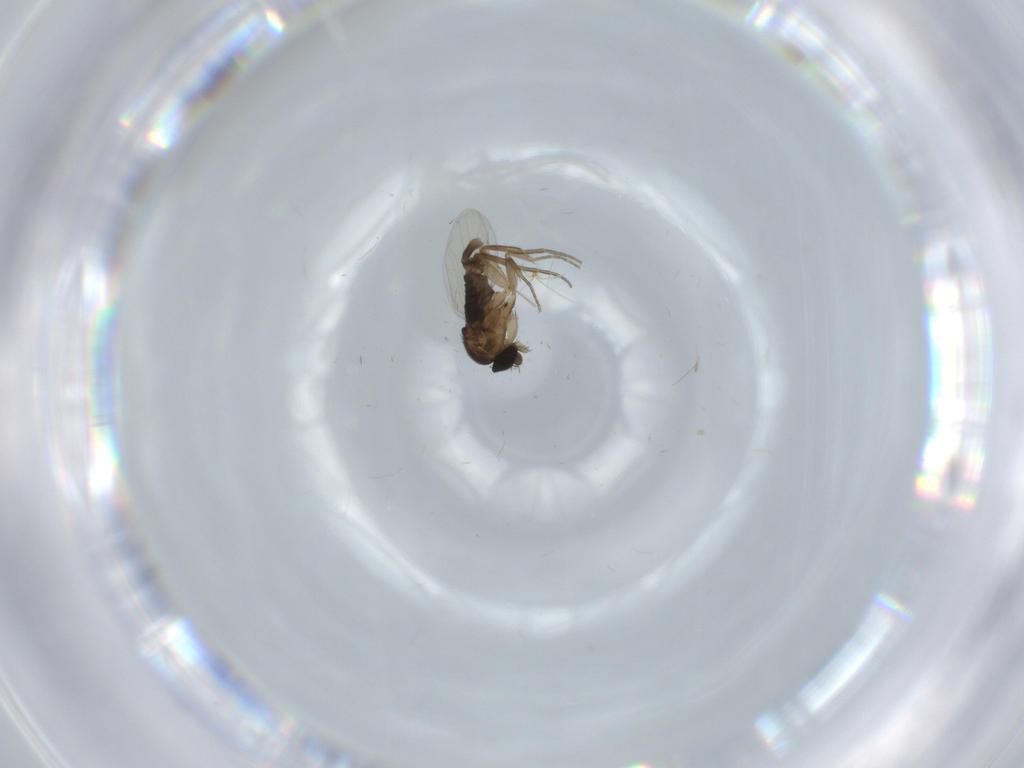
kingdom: Animalia
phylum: Arthropoda
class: Insecta
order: Diptera
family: Phoridae
